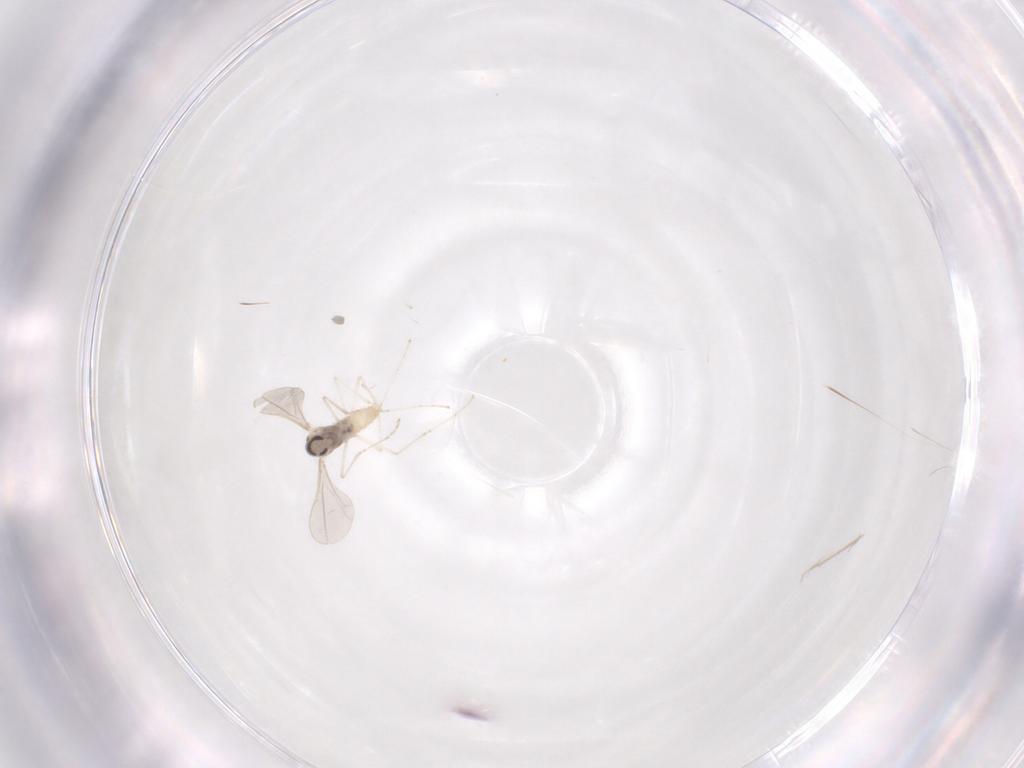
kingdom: Animalia
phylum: Arthropoda
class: Insecta
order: Diptera
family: Cecidomyiidae
